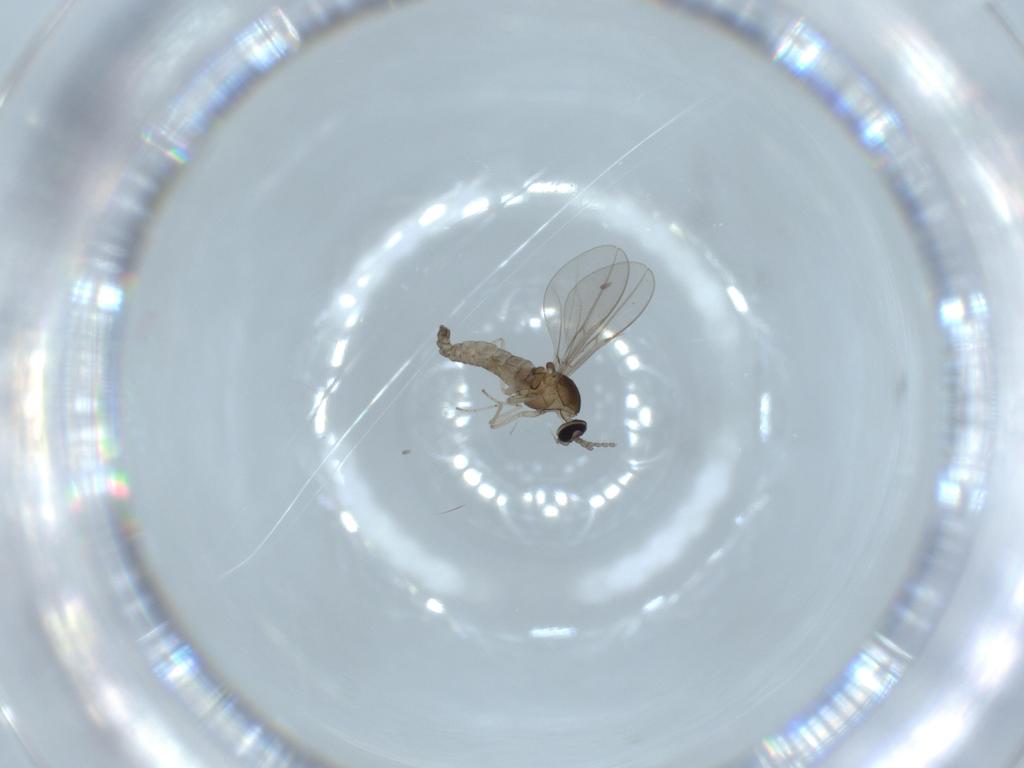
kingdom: Animalia
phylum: Arthropoda
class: Insecta
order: Diptera
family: Cecidomyiidae
